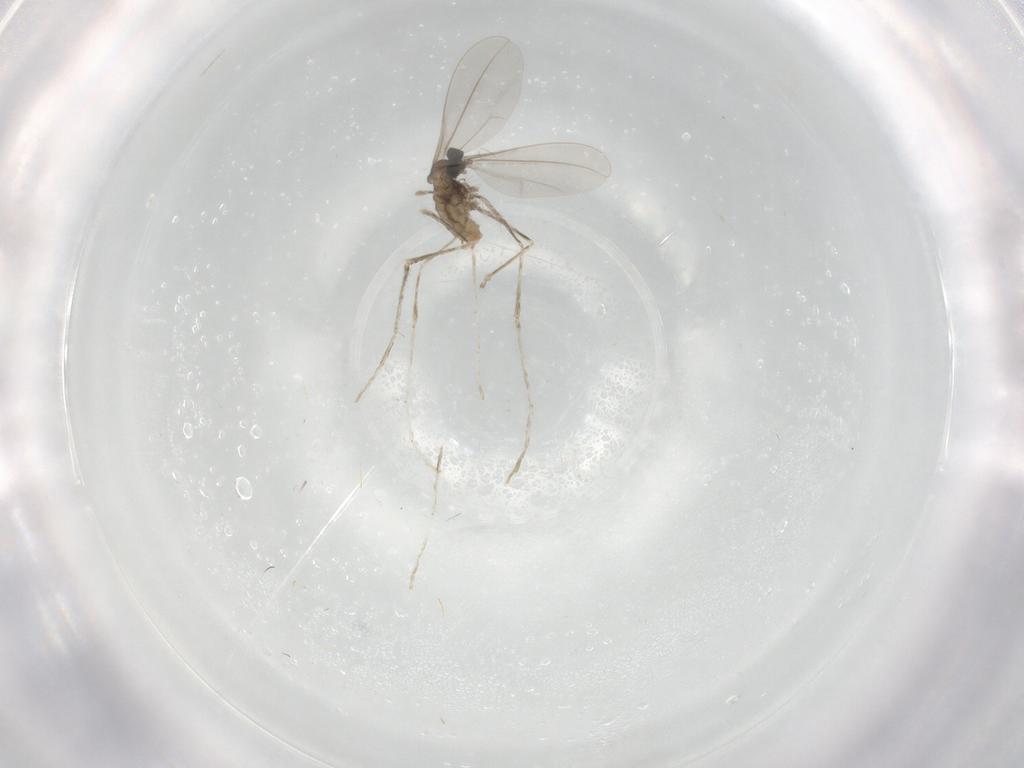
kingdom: Animalia
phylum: Arthropoda
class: Insecta
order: Diptera
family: Cecidomyiidae
